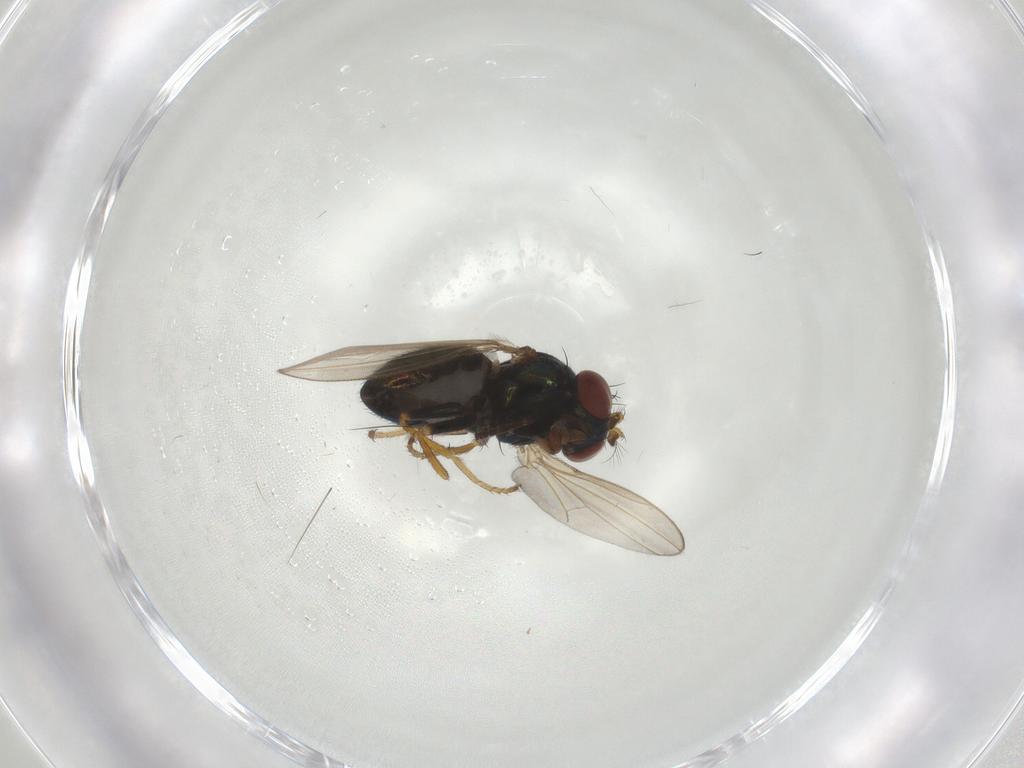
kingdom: Animalia
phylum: Arthropoda
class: Insecta
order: Diptera
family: Ephydridae
